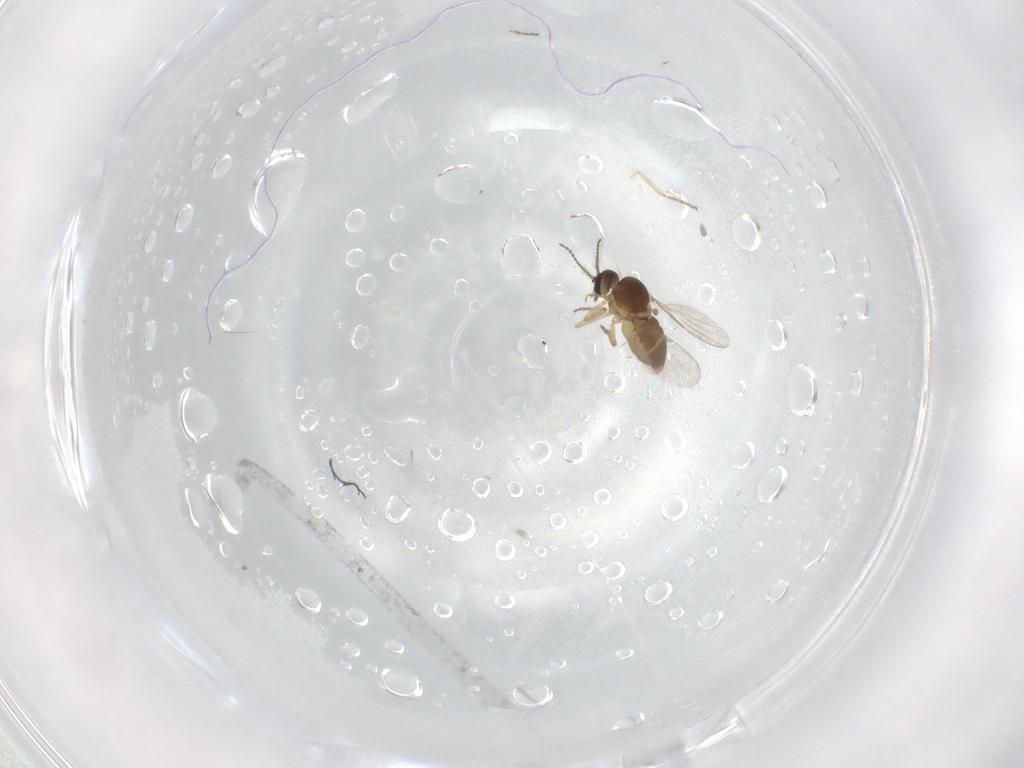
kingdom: Animalia
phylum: Arthropoda
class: Insecta
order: Diptera
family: Ceratopogonidae
